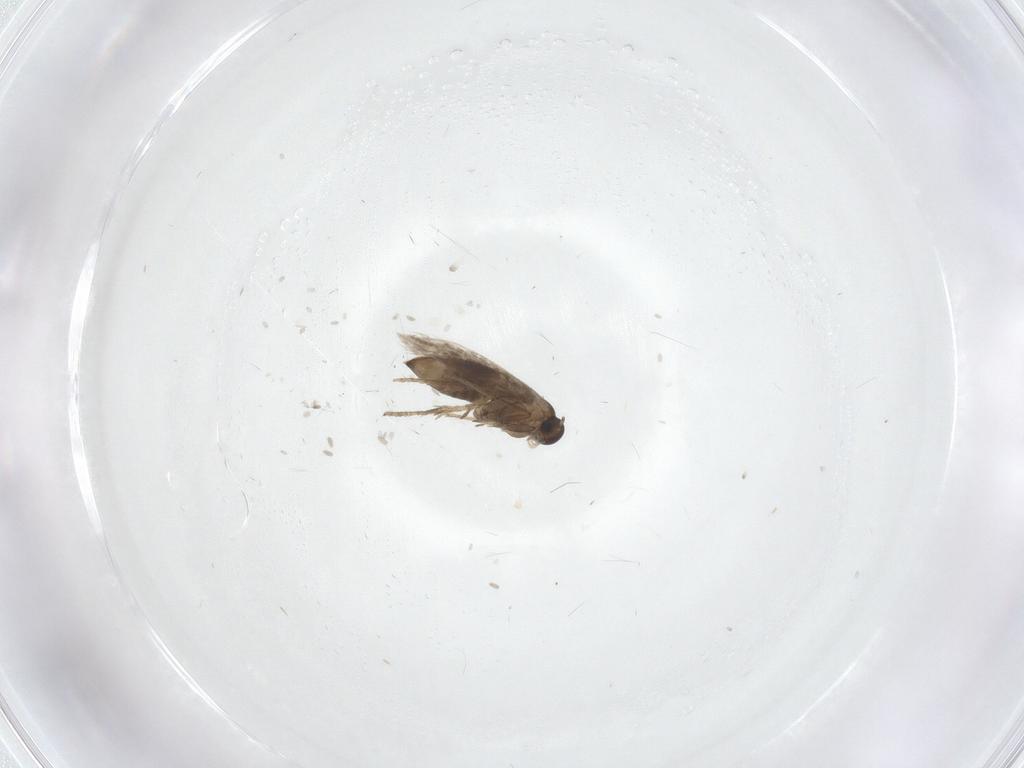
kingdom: Animalia
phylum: Arthropoda
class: Insecta
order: Lepidoptera
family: Heliozelidae
